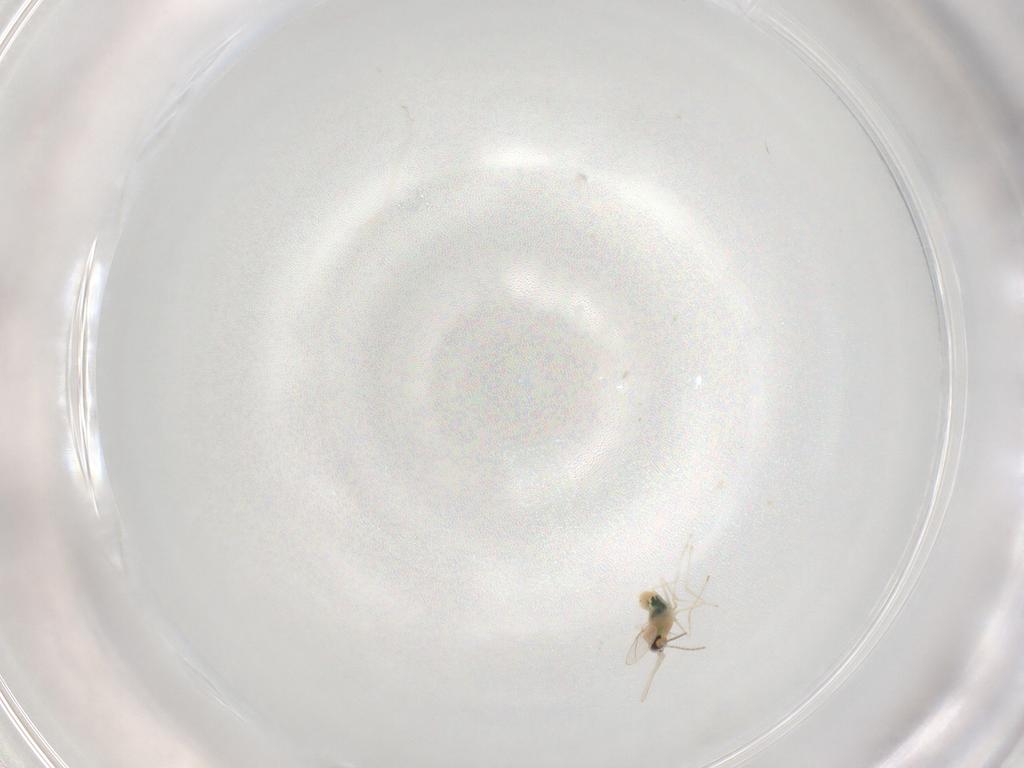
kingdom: Animalia
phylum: Arthropoda
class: Insecta
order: Diptera
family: Cecidomyiidae
